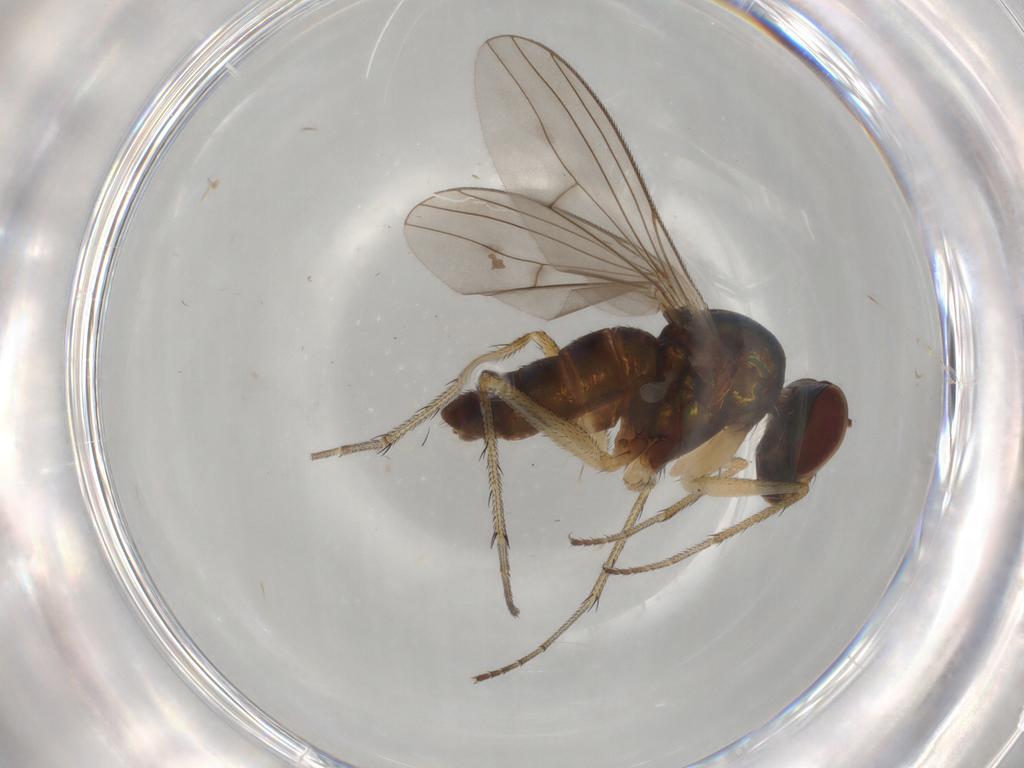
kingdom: Animalia
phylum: Arthropoda
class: Insecta
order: Diptera
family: Dolichopodidae
